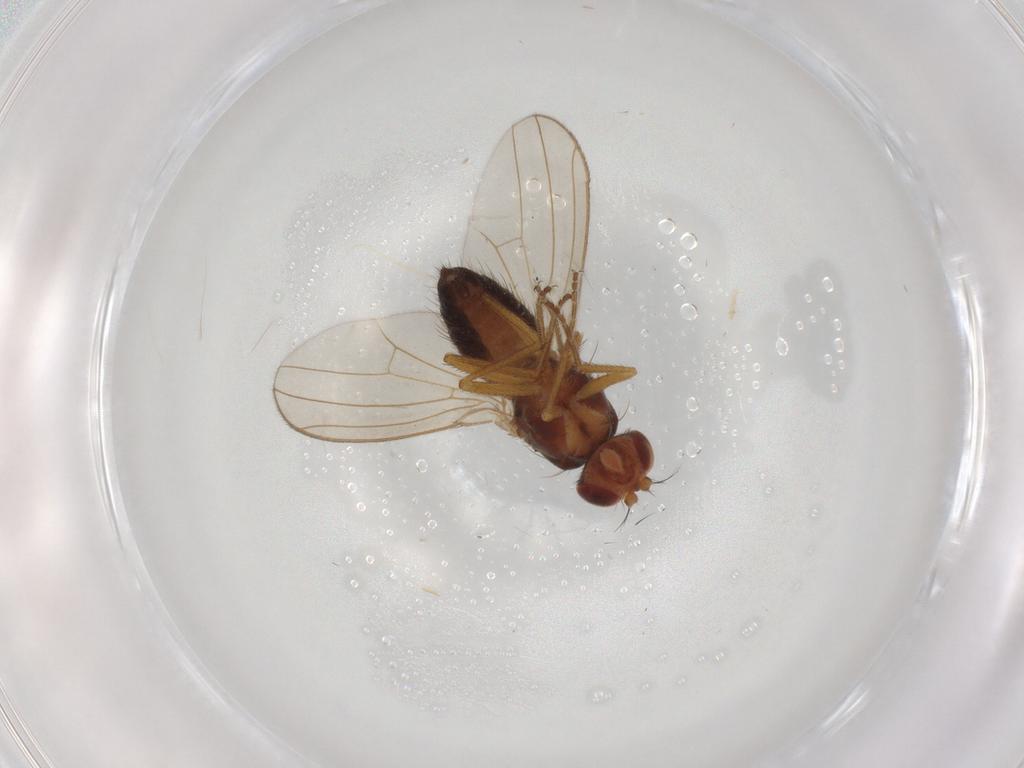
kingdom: Animalia
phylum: Arthropoda
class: Insecta
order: Diptera
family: Drosophilidae
